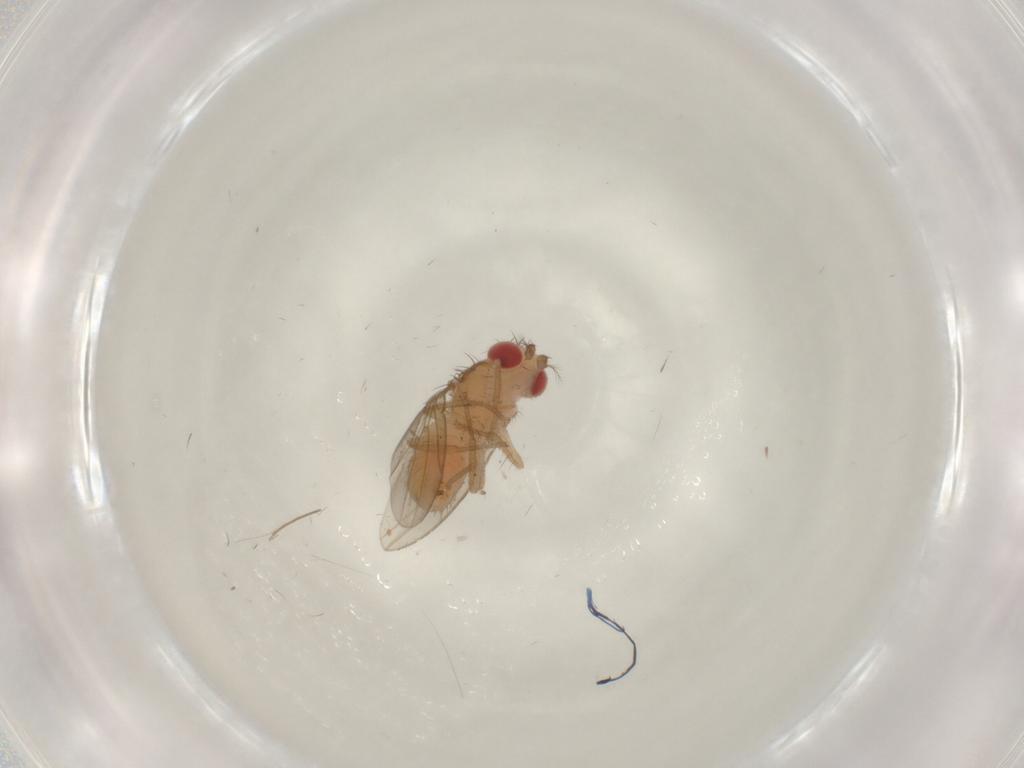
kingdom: Animalia
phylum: Arthropoda
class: Insecta
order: Diptera
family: Drosophilidae
